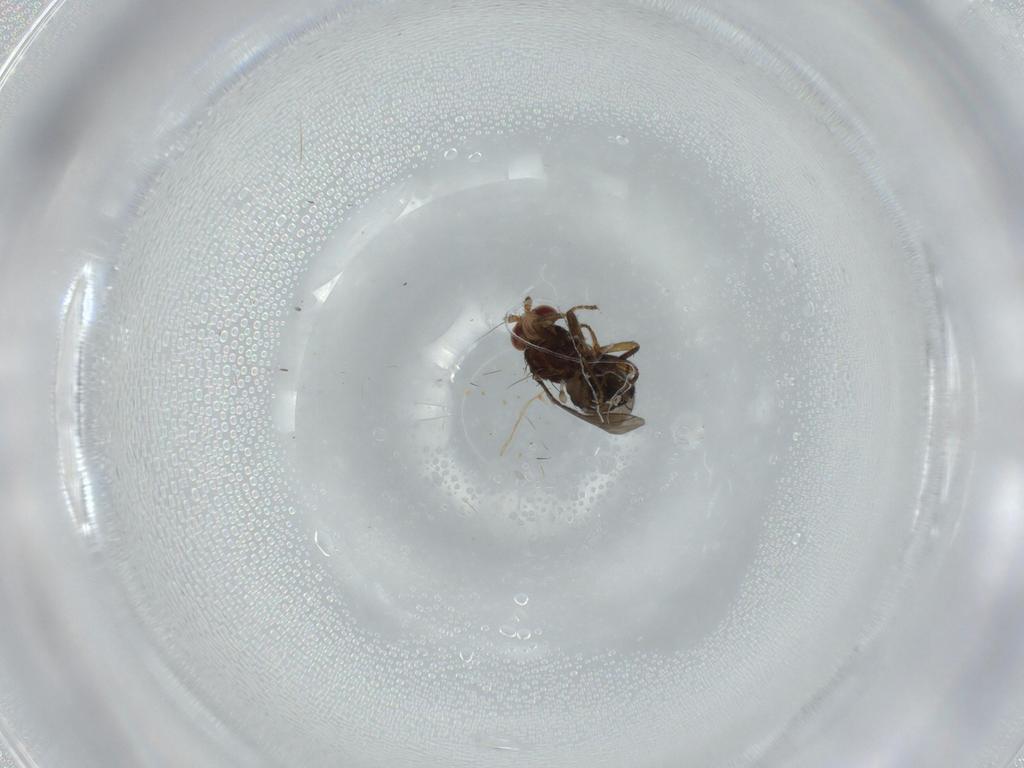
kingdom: Animalia
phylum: Arthropoda
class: Insecta
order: Diptera
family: Sphaeroceridae
